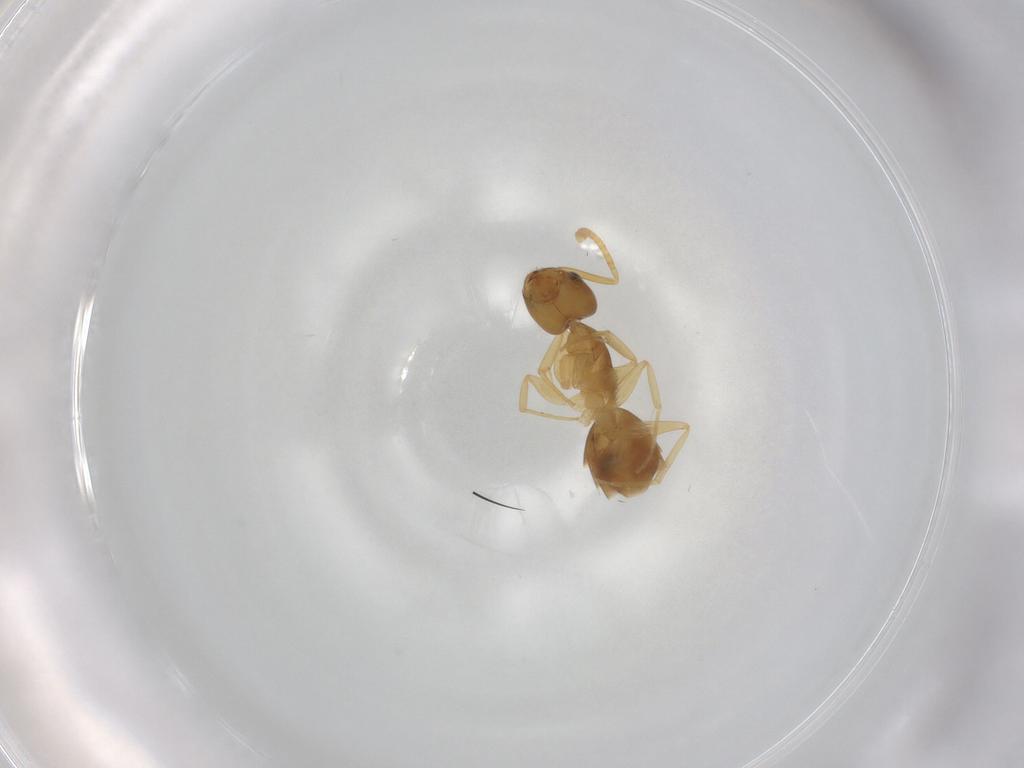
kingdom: Animalia
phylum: Arthropoda
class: Insecta
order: Hymenoptera
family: Formicidae
